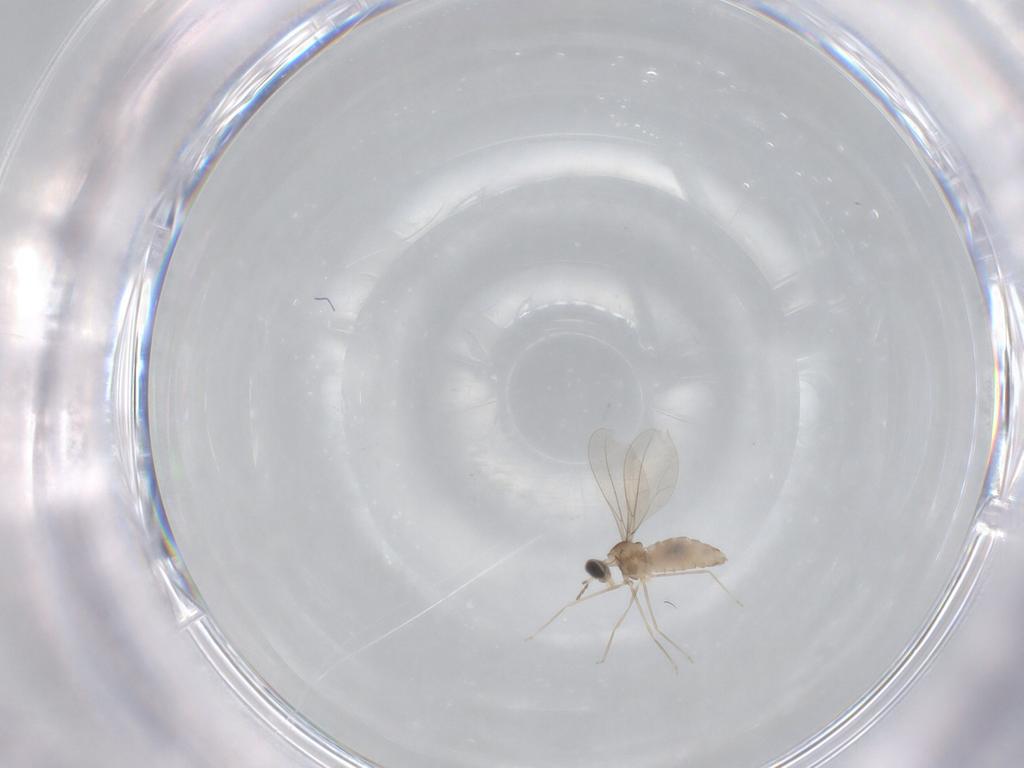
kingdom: Animalia
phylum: Arthropoda
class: Insecta
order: Diptera
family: Cecidomyiidae
